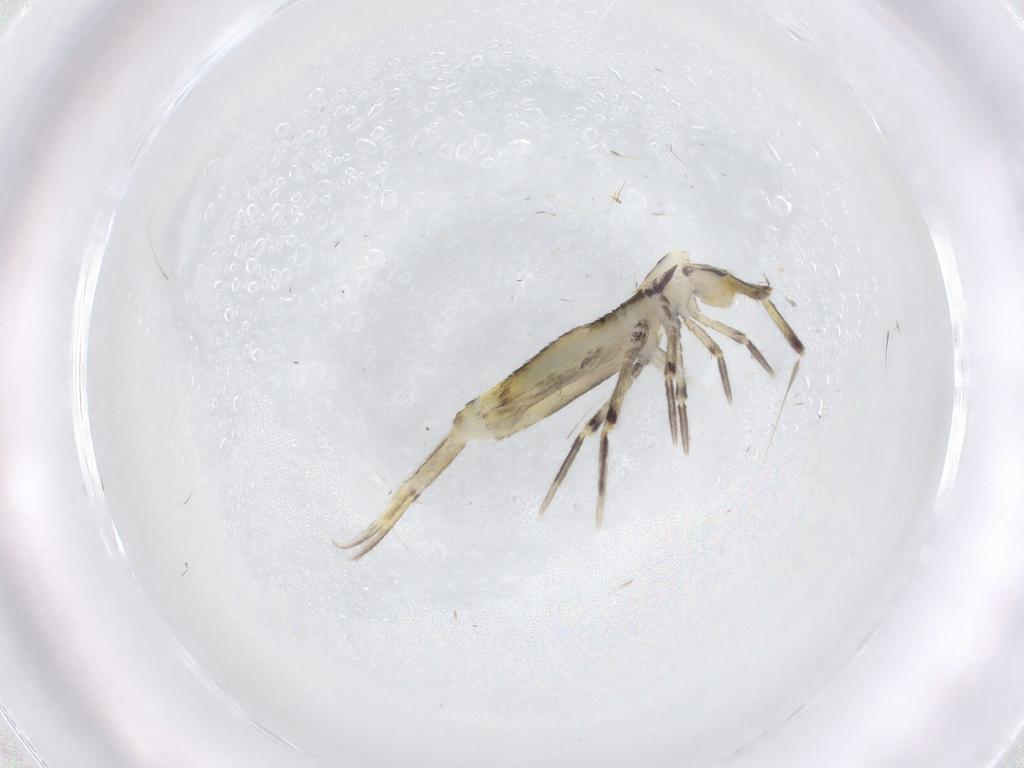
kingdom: Animalia
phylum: Arthropoda
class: Collembola
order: Entomobryomorpha
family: Entomobryidae
